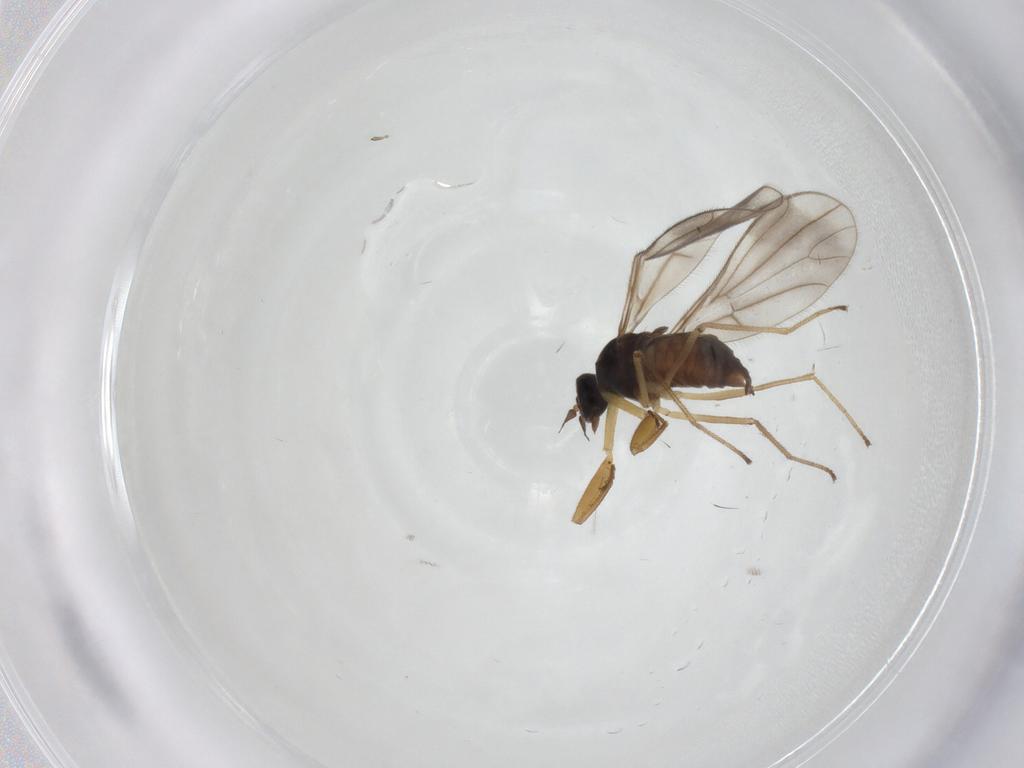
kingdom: Animalia
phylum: Arthropoda
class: Insecta
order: Diptera
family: Empididae
